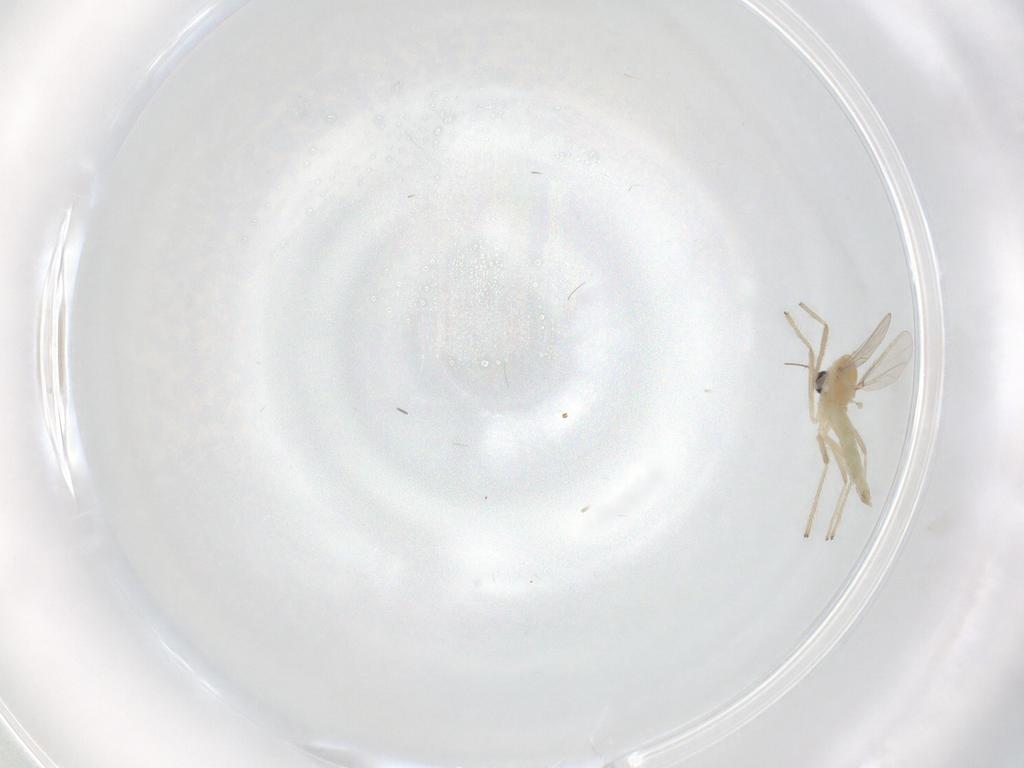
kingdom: Animalia
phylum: Arthropoda
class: Insecta
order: Diptera
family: Chironomidae
